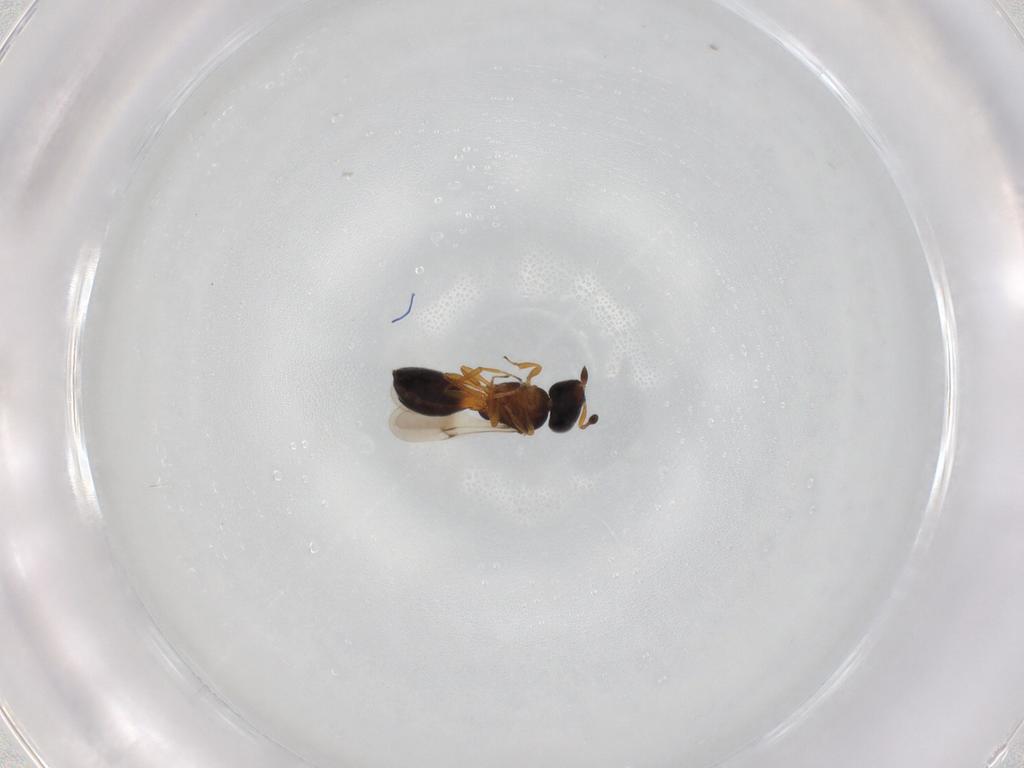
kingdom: Animalia
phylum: Arthropoda
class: Insecta
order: Hymenoptera
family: Scelionidae
